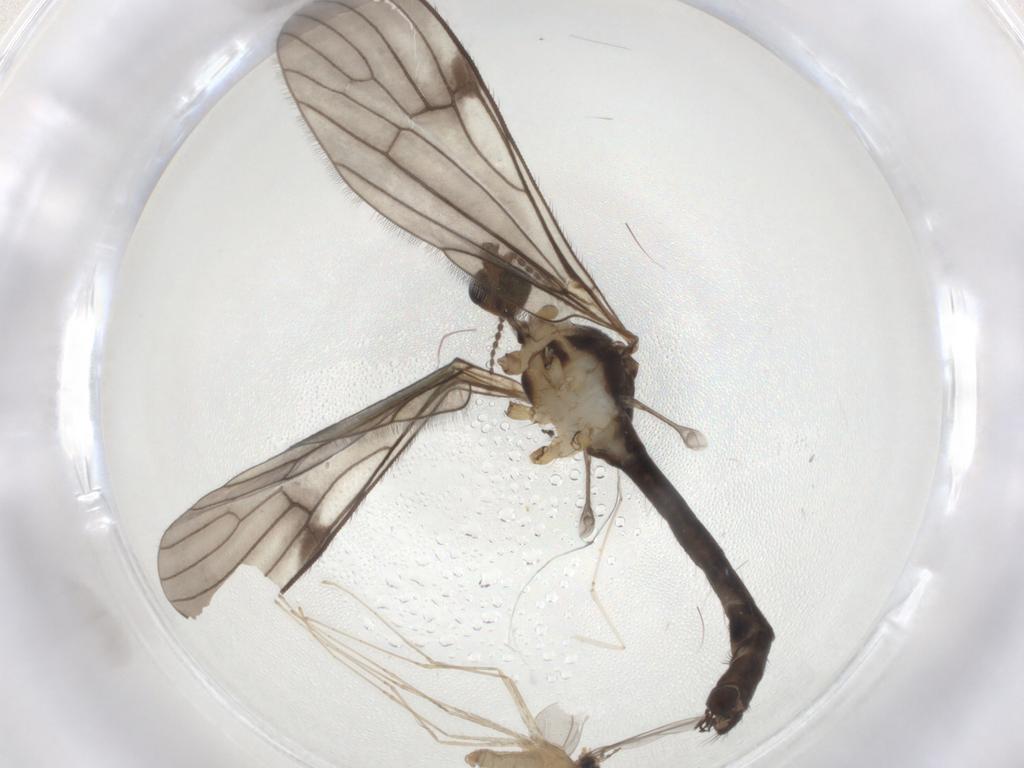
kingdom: Animalia
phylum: Arthropoda
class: Insecta
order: Diptera
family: Limoniidae
